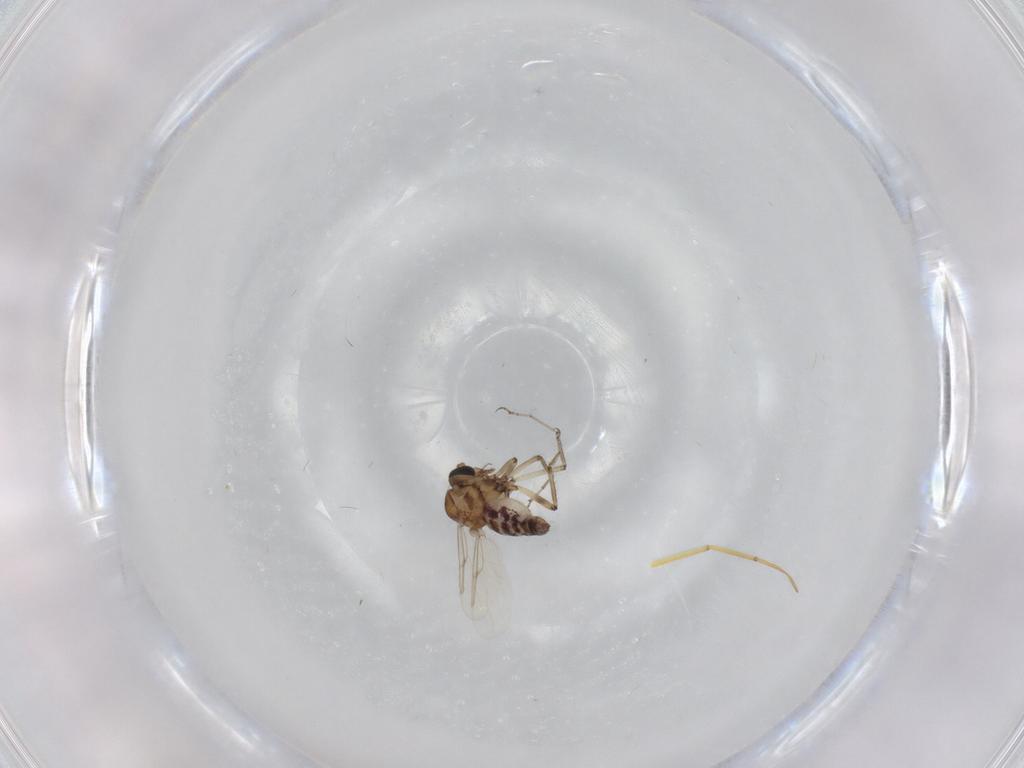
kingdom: Animalia
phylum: Arthropoda
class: Insecta
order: Diptera
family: Ceratopogonidae
